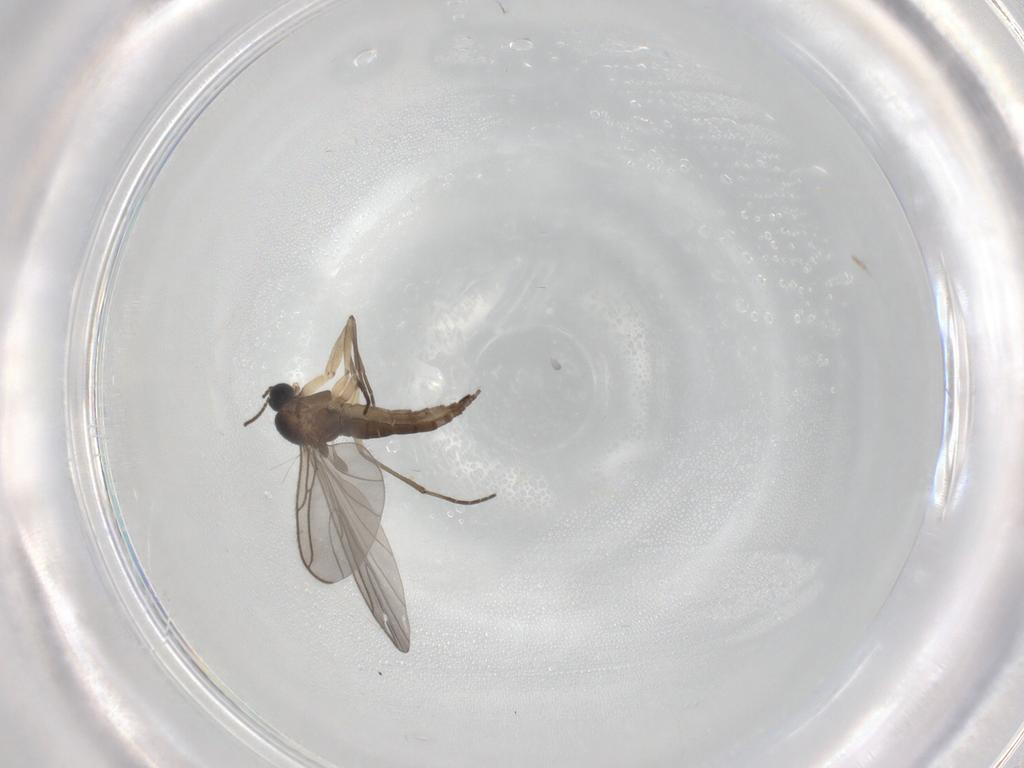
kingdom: Animalia
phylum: Arthropoda
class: Insecta
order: Diptera
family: Sciaridae
